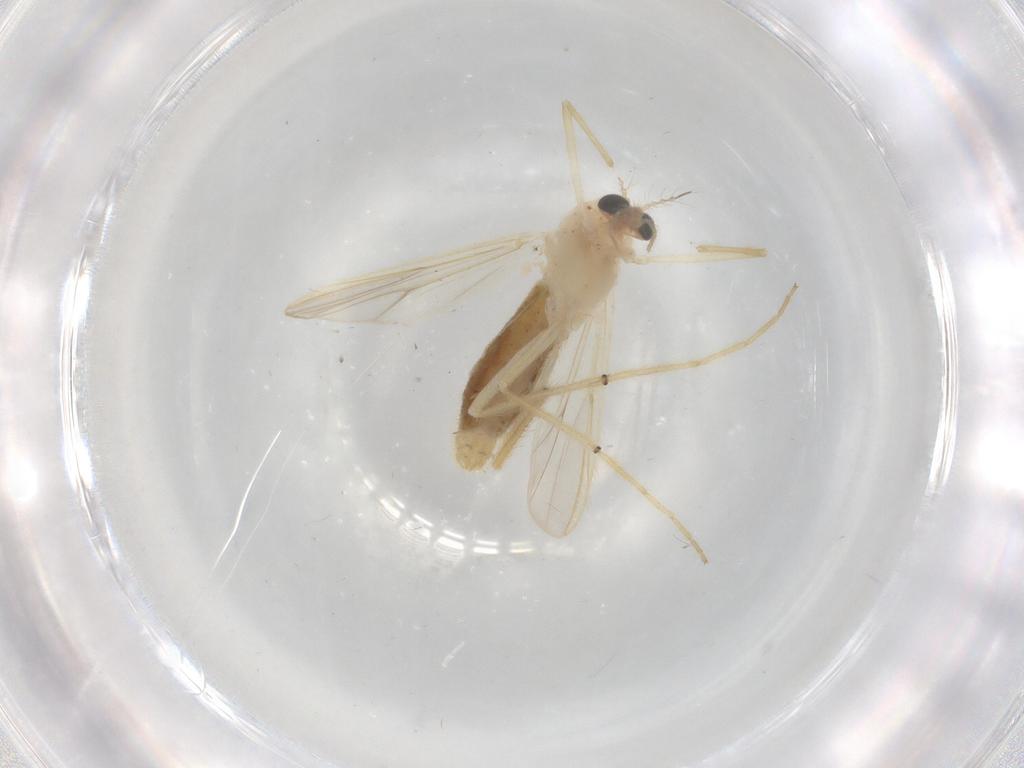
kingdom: Animalia
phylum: Arthropoda
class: Insecta
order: Diptera
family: Chironomidae
